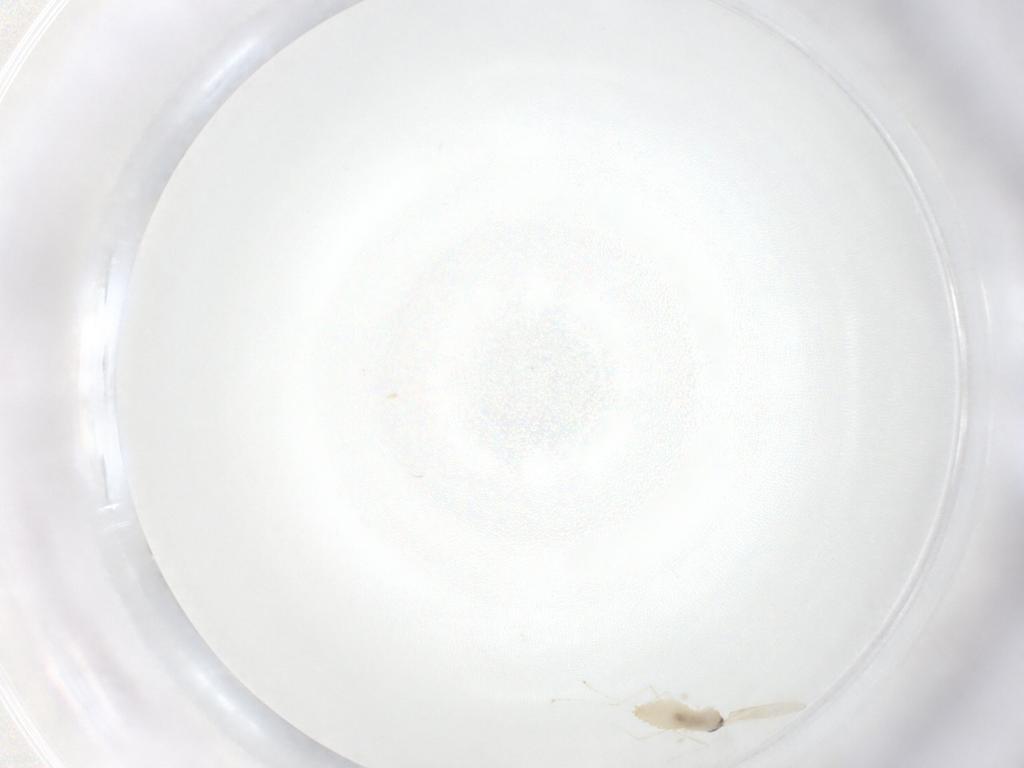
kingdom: Animalia
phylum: Arthropoda
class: Insecta
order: Diptera
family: Cecidomyiidae
